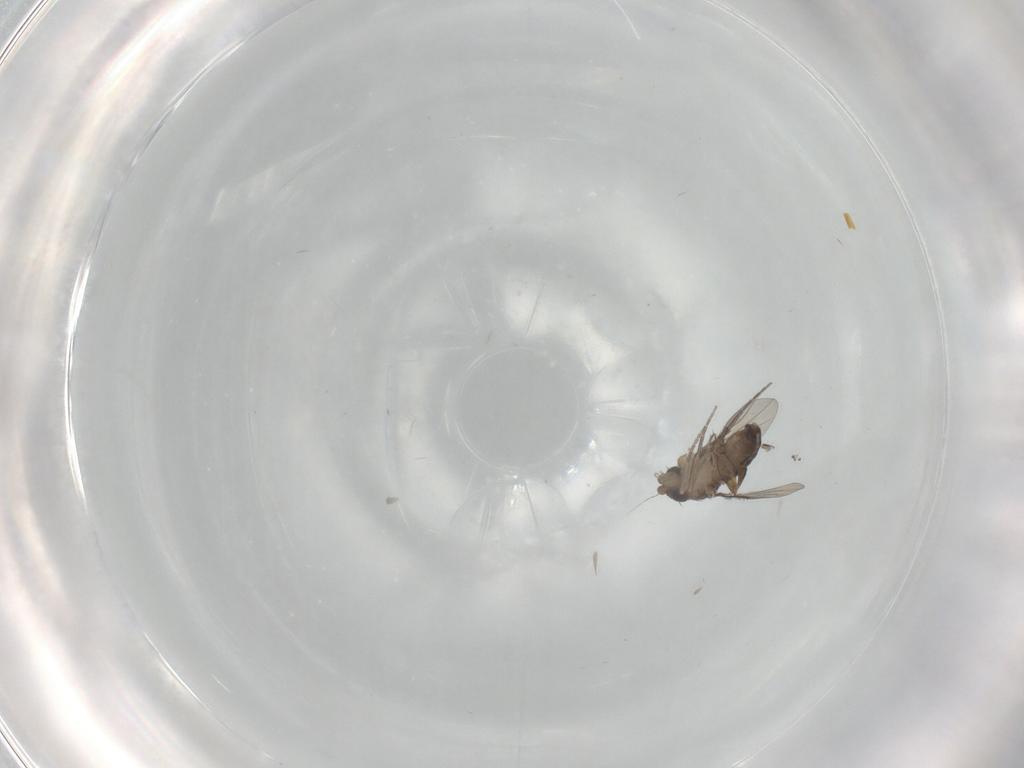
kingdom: Animalia
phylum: Arthropoda
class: Insecta
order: Diptera
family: Phoridae
